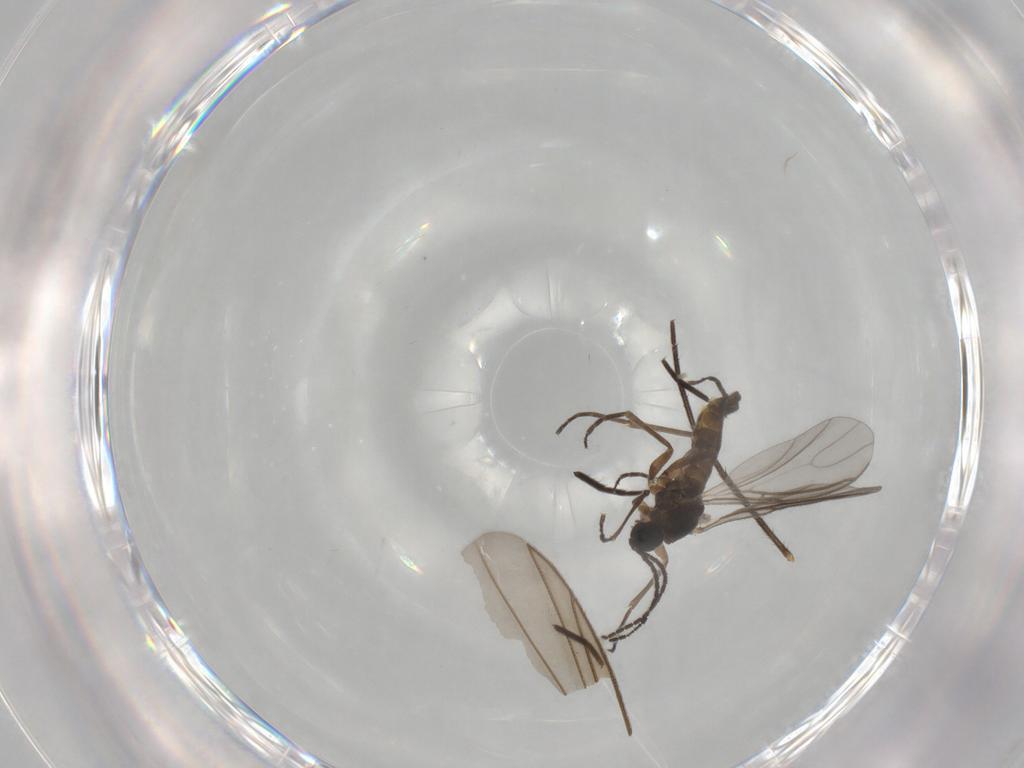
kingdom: Animalia
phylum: Arthropoda
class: Insecta
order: Diptera
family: Sciaridae
